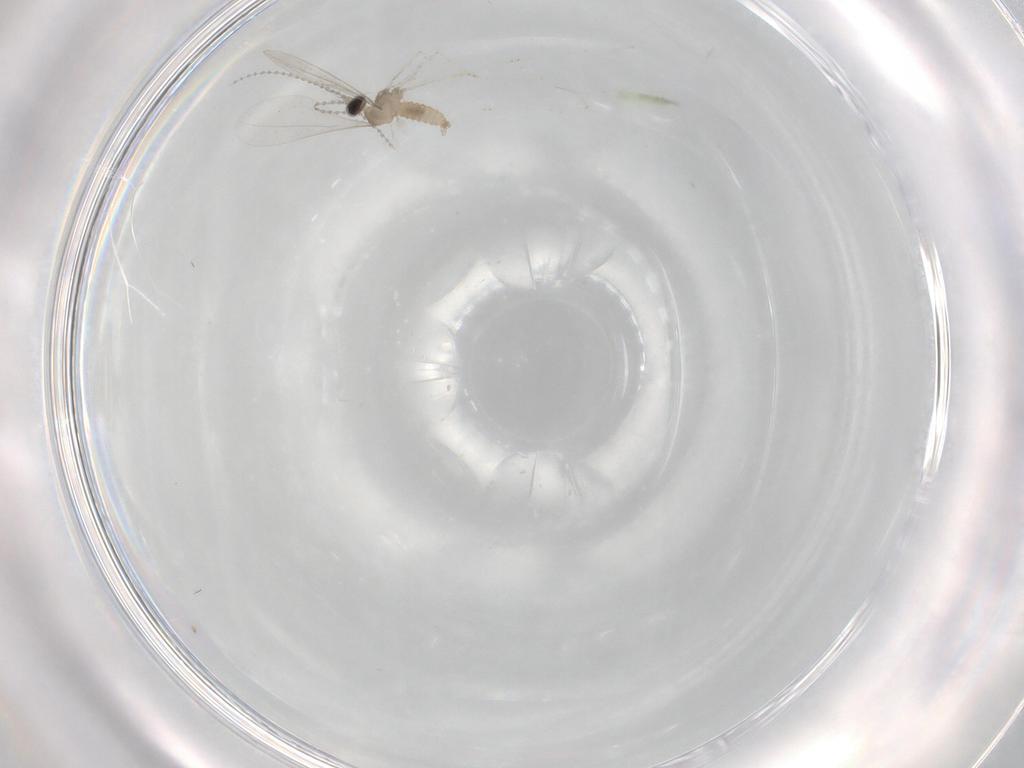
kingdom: Animalia
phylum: Arthropoda
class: Insecta
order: Diptera
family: Cecidomyiidae
